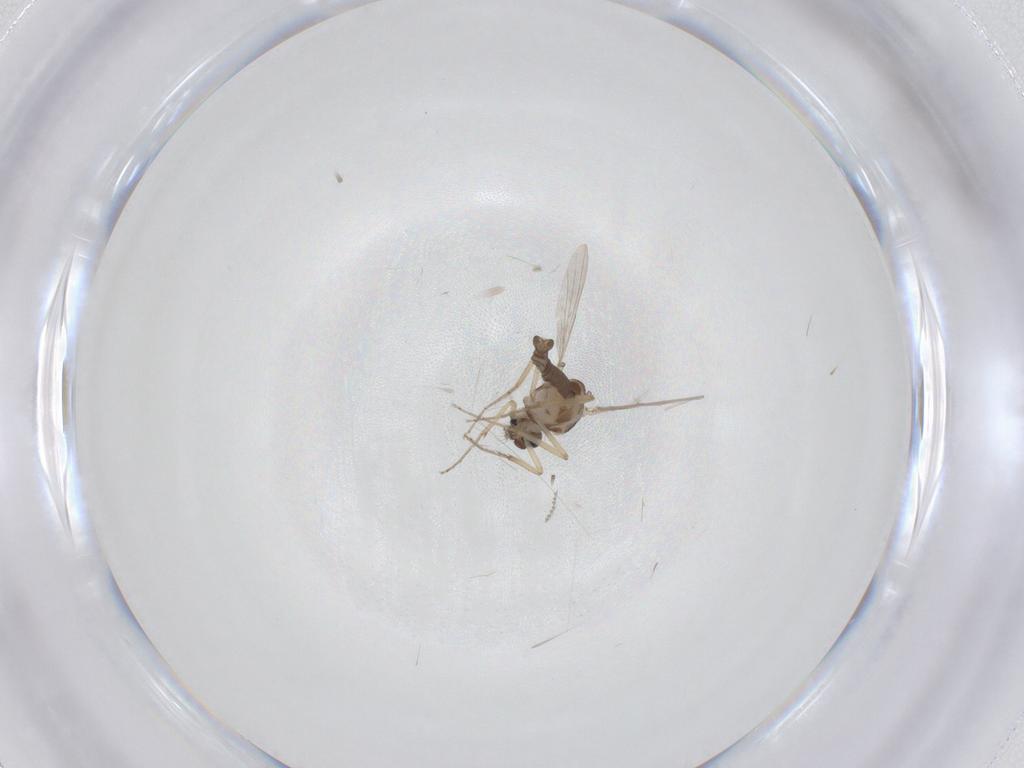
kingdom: Animalia
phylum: Arthropoda
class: Insecta
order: Diptera
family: Ceratopogonidae
